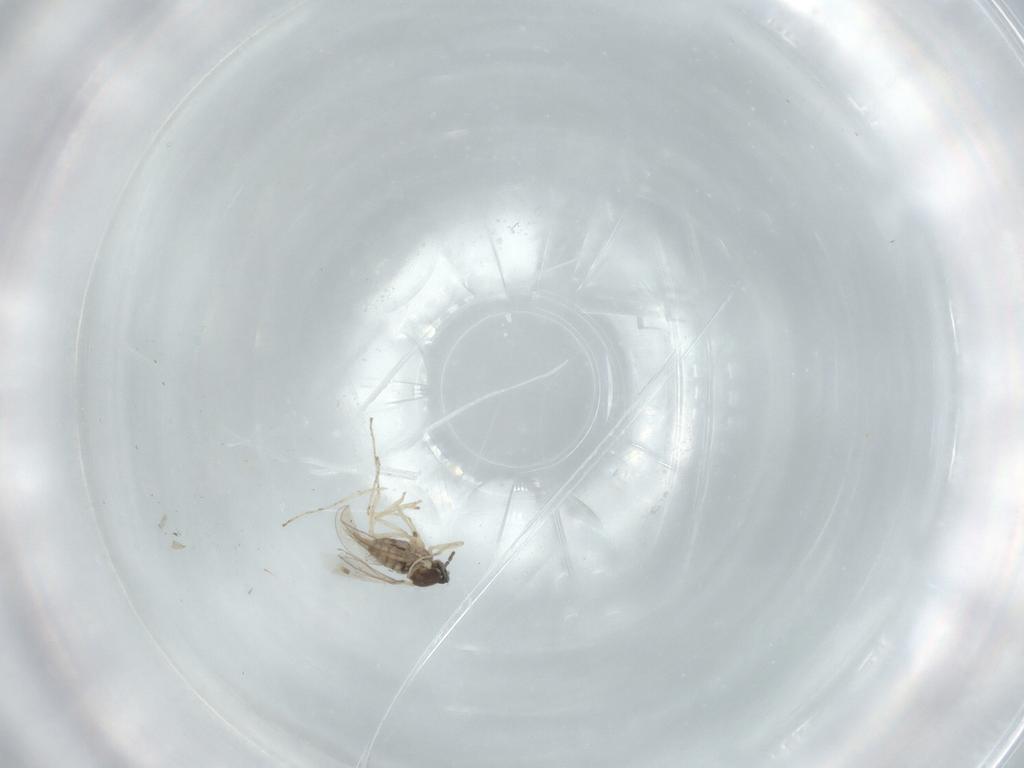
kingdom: Animalia
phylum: Arthropoda
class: Insecta
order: Diptera
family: Cecidomyiidae
